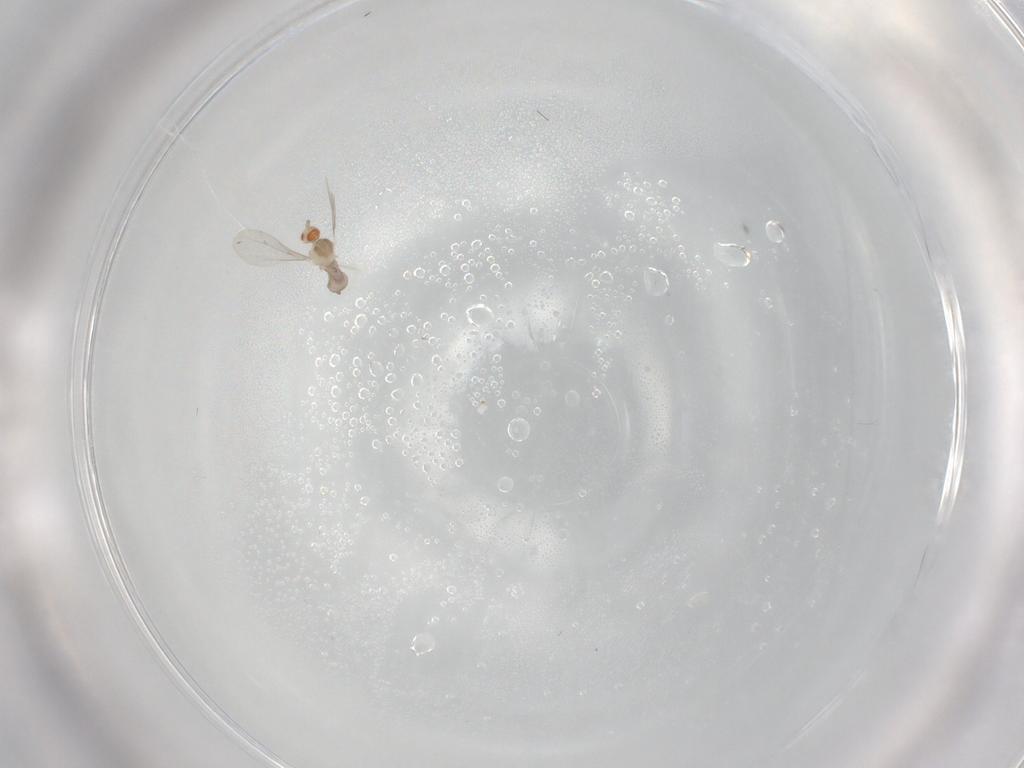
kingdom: Animalia
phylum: Arthropoda
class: Insecta
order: Diptera
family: Cecidomyiidae
